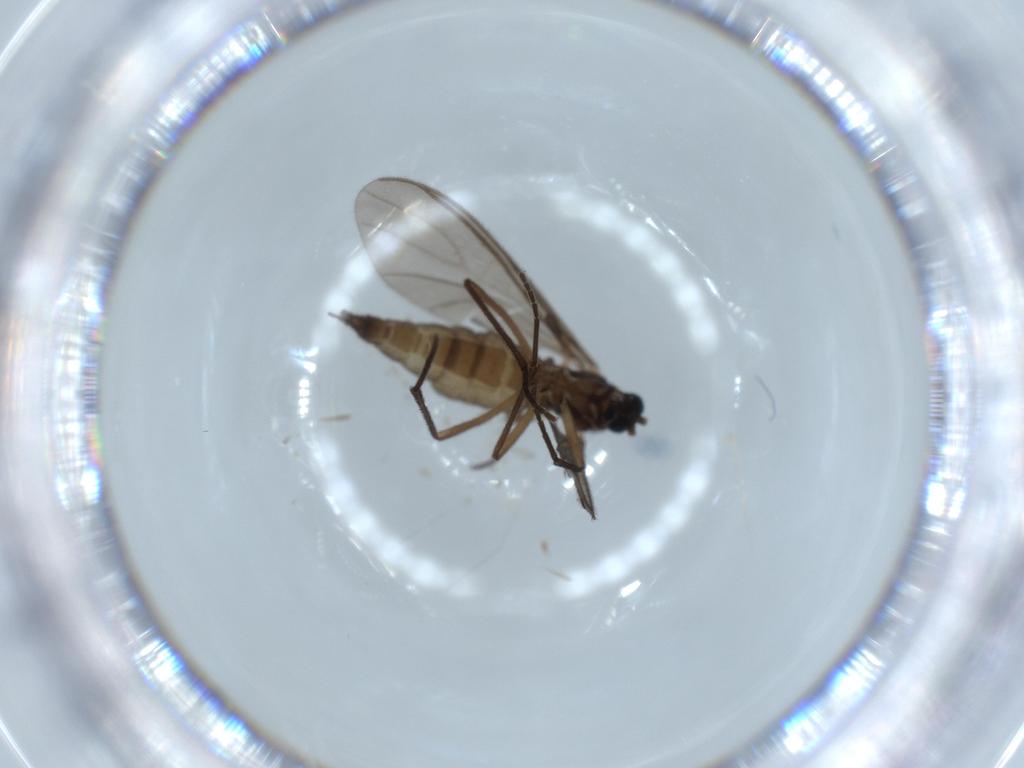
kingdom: Animalia
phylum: Arthropoda
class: Insecta
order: Diptera
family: Sciaridae
